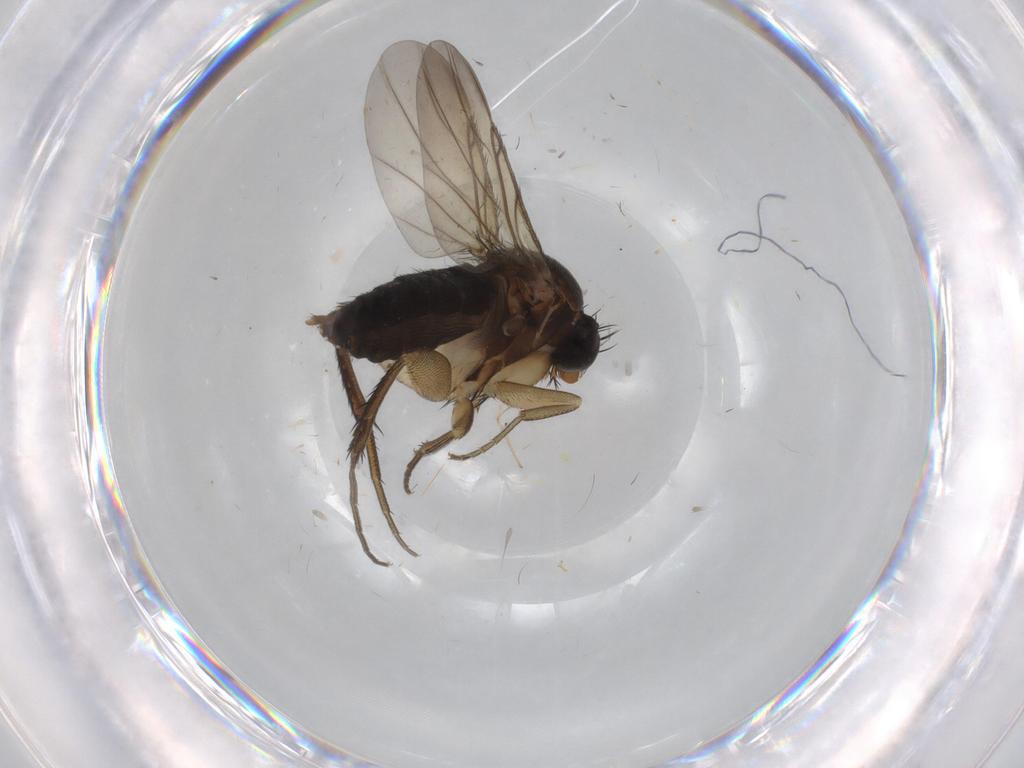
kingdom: Animalia
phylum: Arthropoda
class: Insecta
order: Diptera
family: Phoridae
